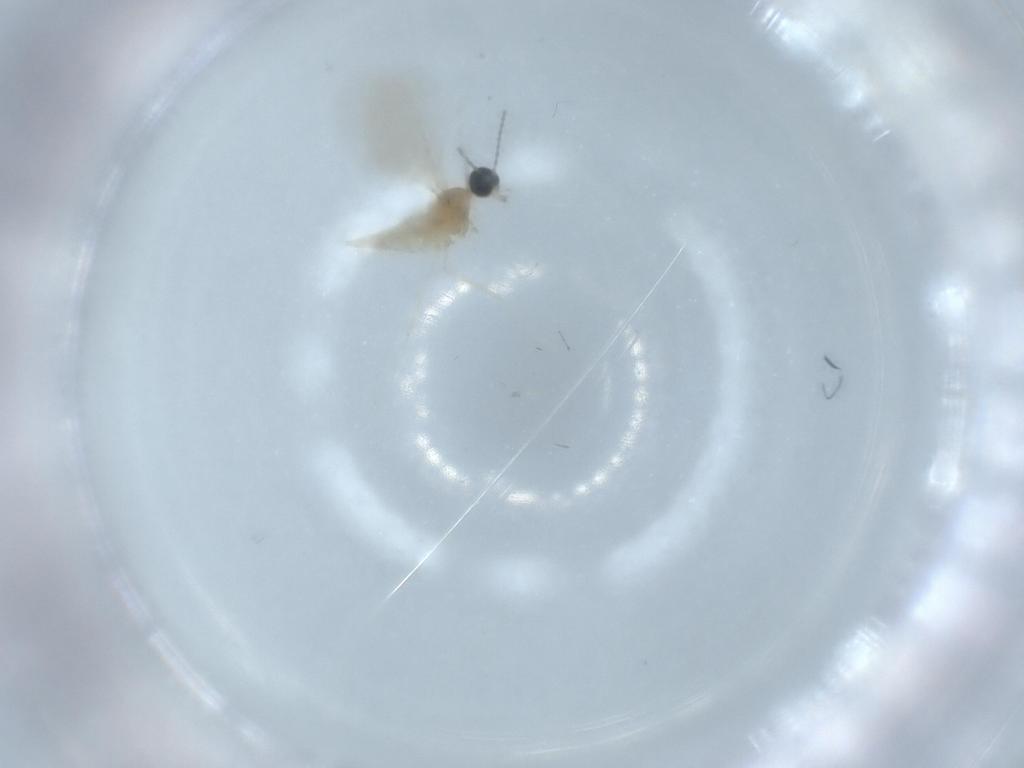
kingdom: Animalia
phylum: Arthropoda
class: Insecta
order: Diptera
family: Cecidomyiidae
